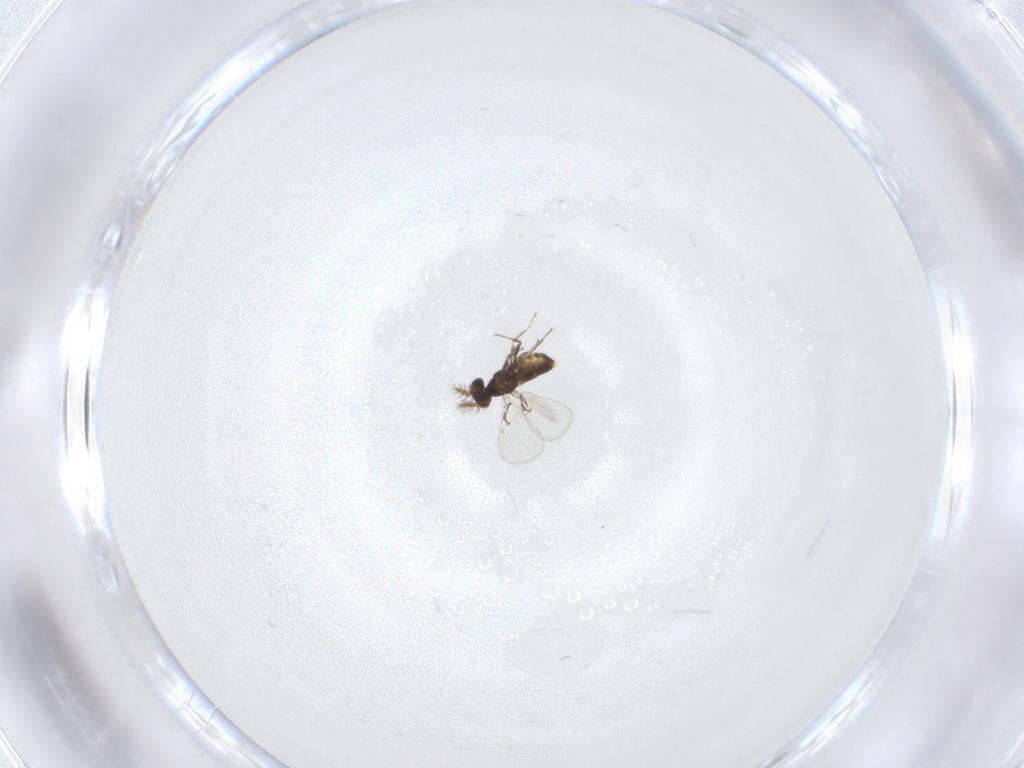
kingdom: Animalia
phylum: Arthropoda
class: Insecta
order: Hymenoptera
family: Trichogrammatidae
